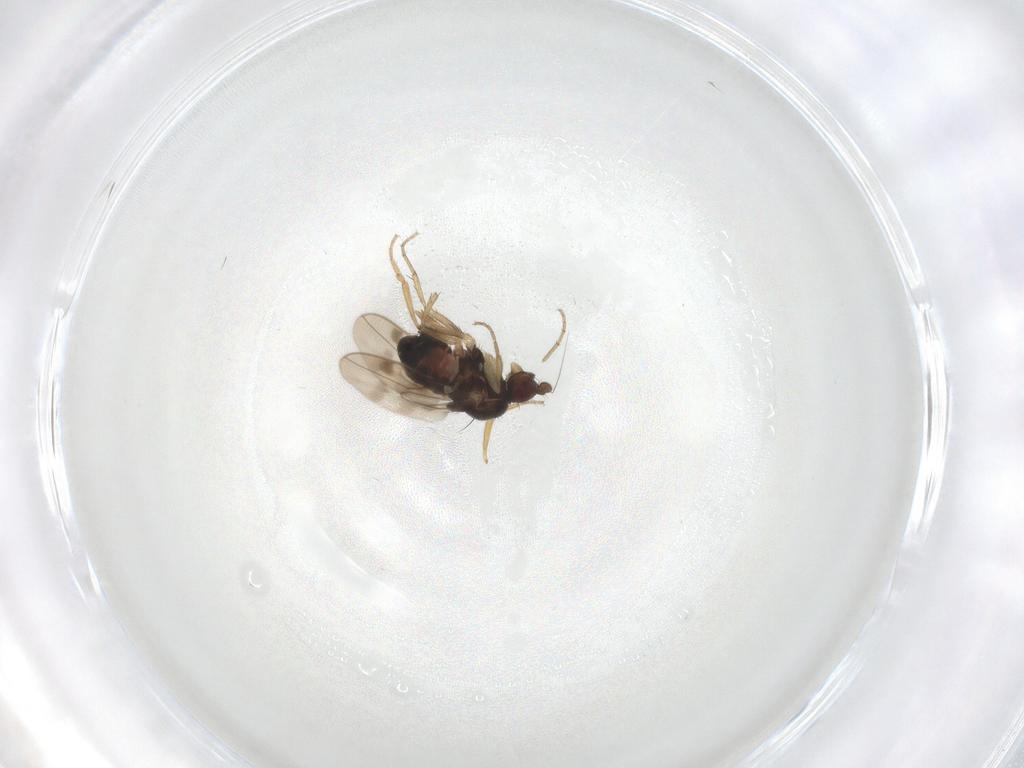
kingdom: Animalia
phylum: Arthropoda
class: Insecta
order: Diptera
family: Sphaeroceridae
